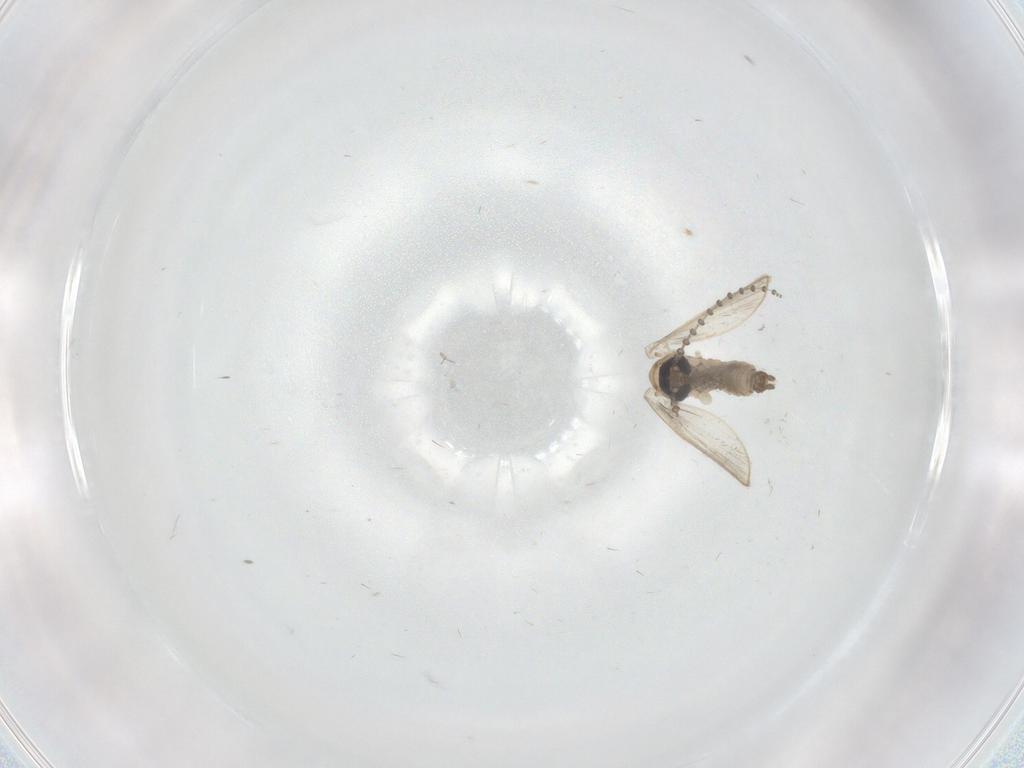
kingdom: Animalia
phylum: Arthropoda
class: Insecta
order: Diptera
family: Psychodidae
